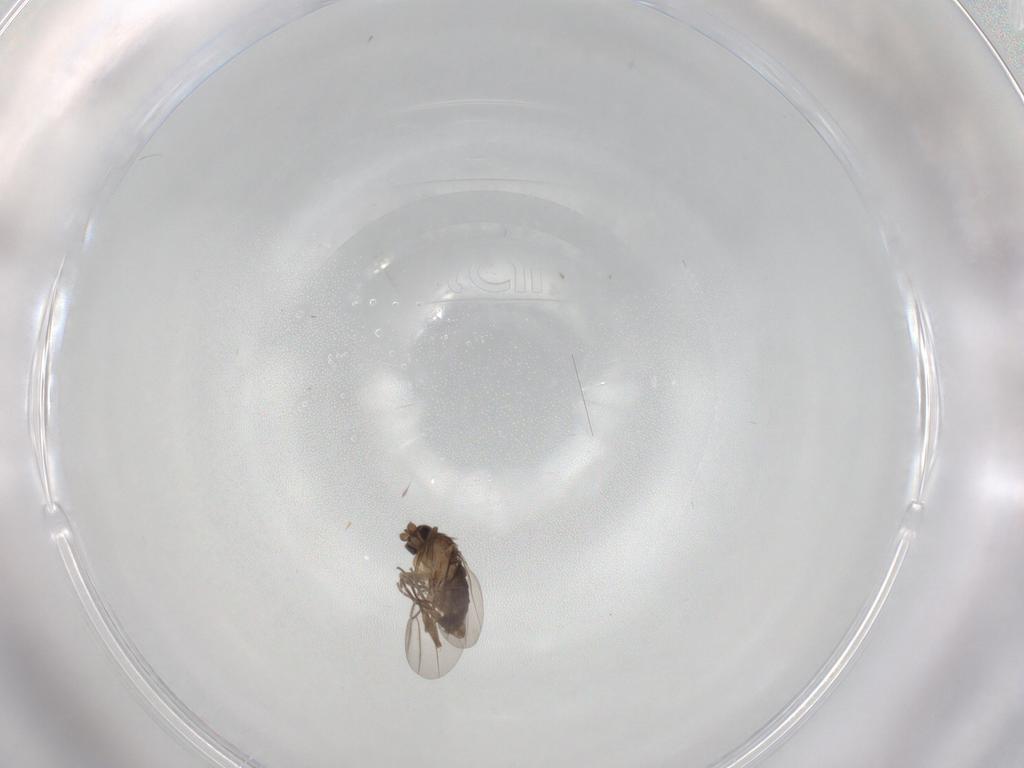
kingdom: Animalia
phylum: Arthropoda
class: Insecta
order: Diptera
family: Phoridae
